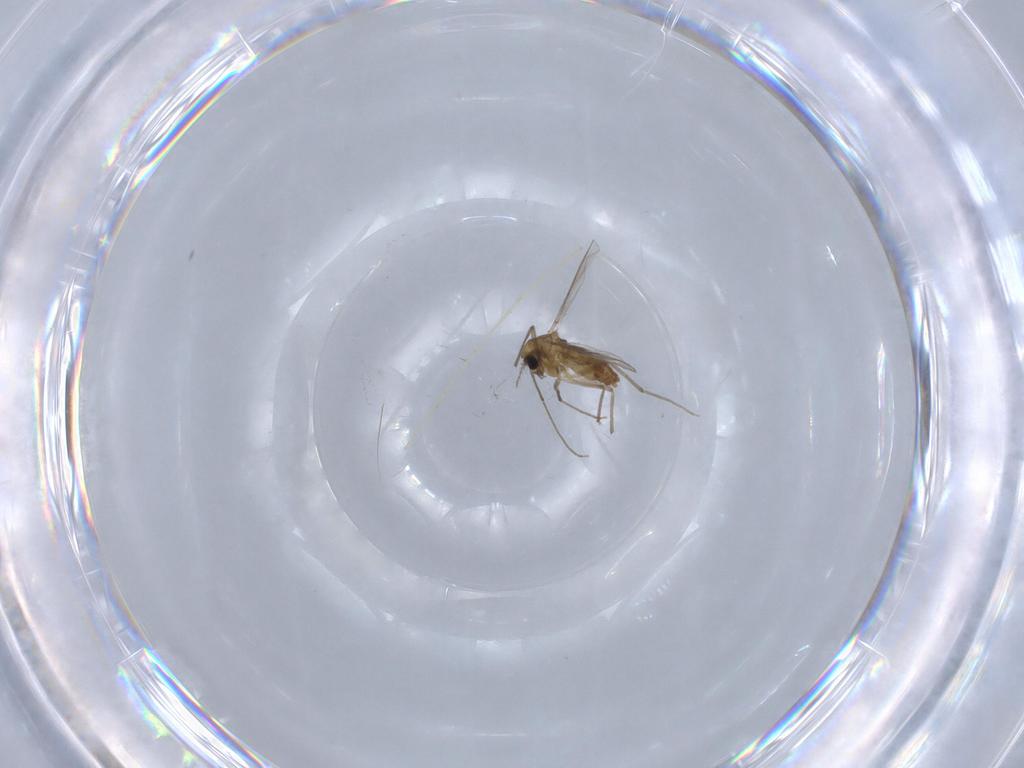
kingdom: Animalia
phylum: Arthropoda
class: Insecta
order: Diptera
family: Chironomidae
